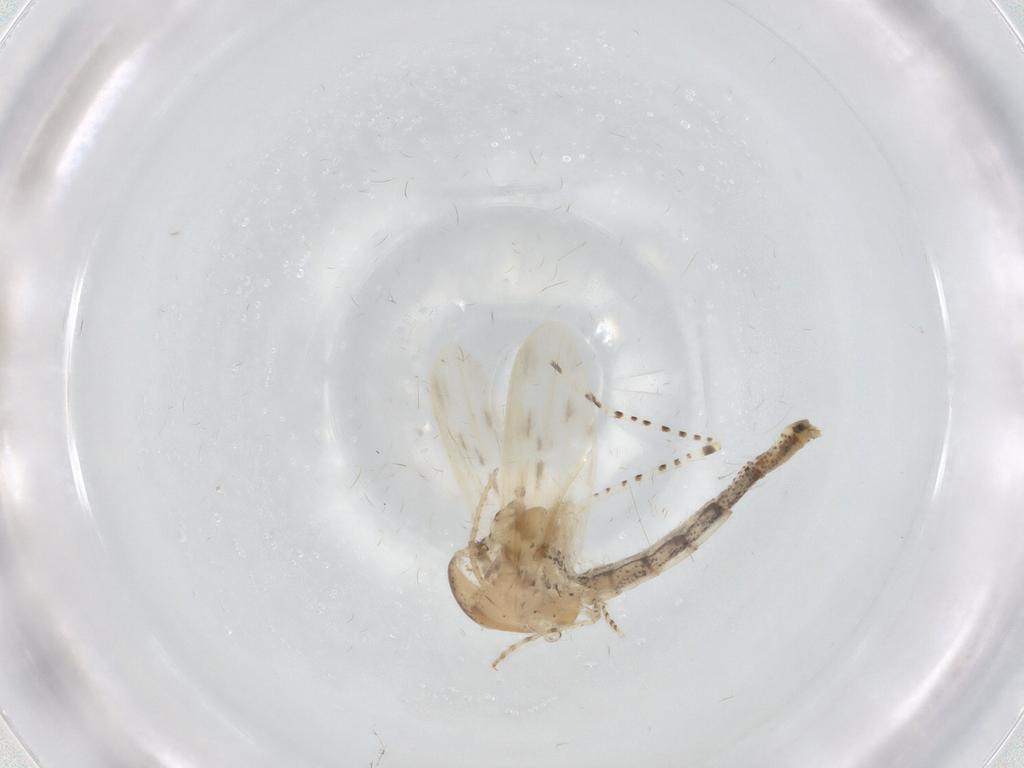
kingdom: Animalia
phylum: Arthropoda
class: Insecta
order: Diptera
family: Chaoboridae
